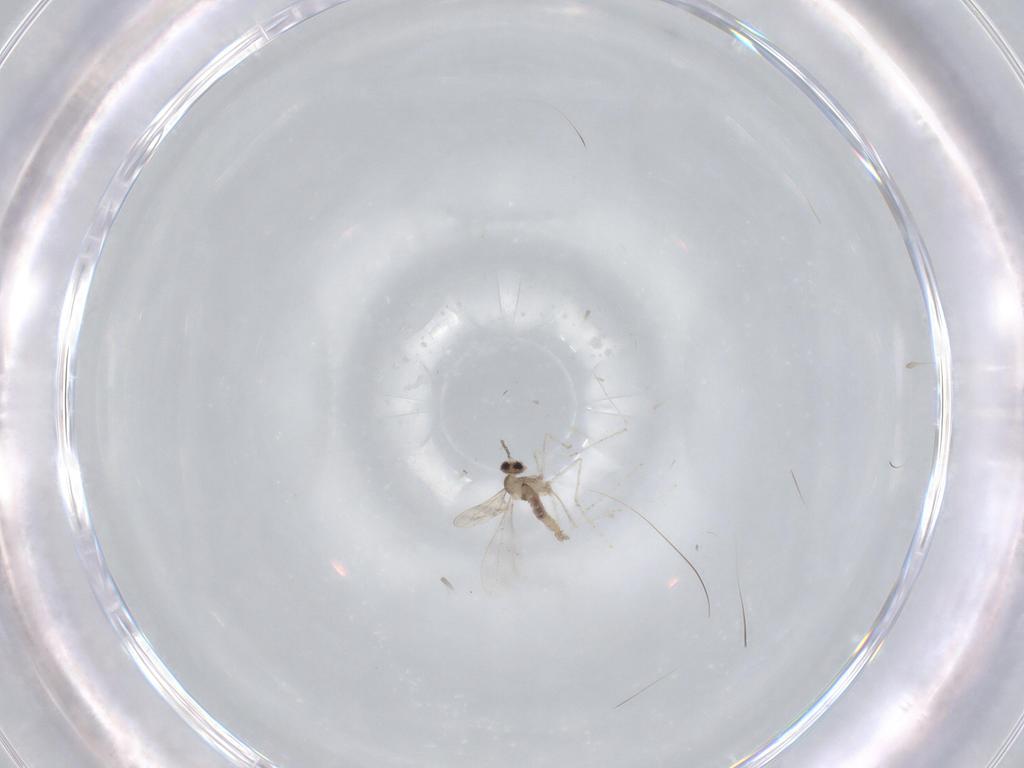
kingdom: Animalia
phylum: Arthropoda
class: Insecta
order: Diptera
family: Cecidomyiidae
